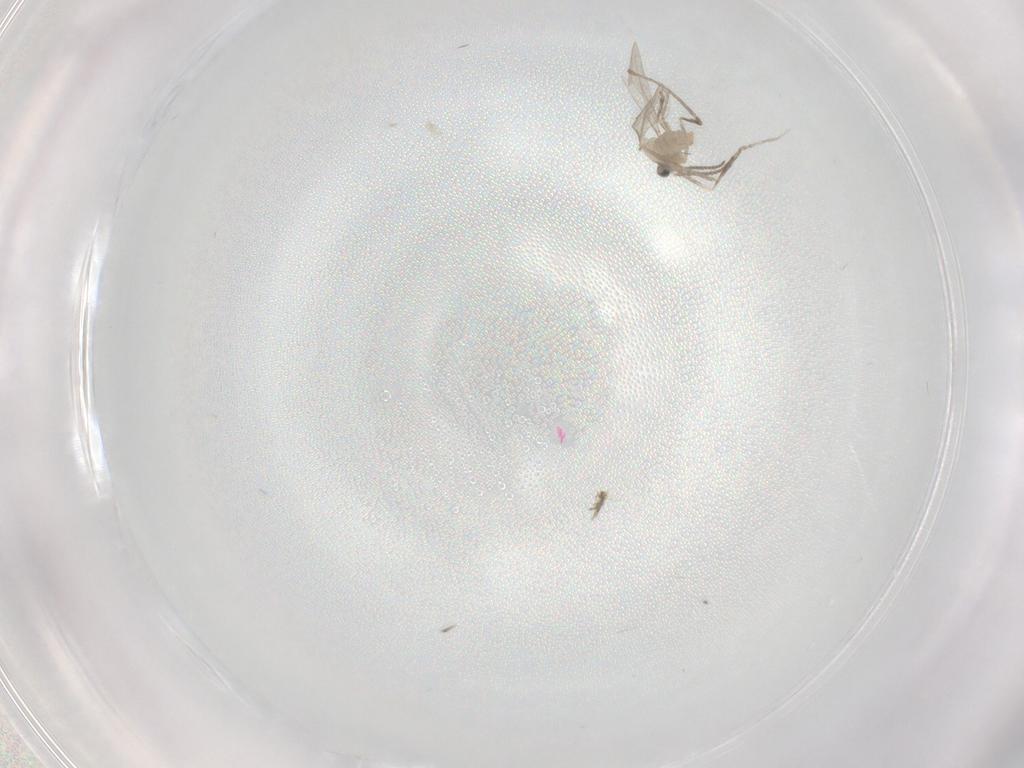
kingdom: Animalia
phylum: Arthropoda
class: Insecta
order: Diptera
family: Bibionidae
